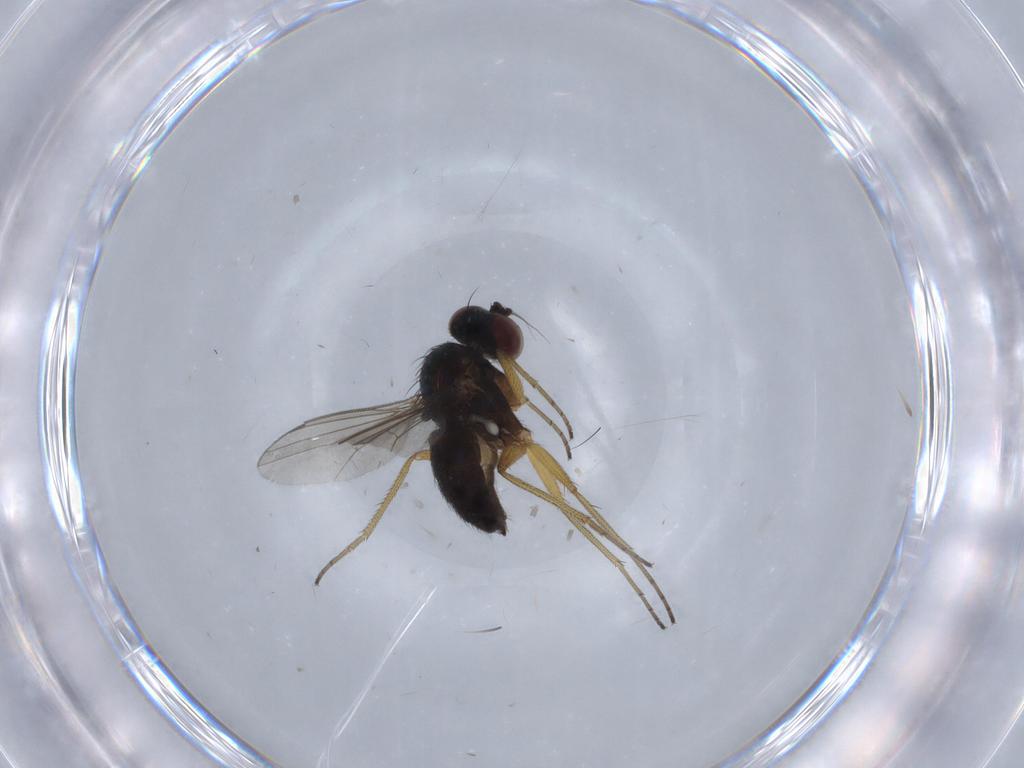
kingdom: Animalia
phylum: Arthropoda
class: Insecta
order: Diptera
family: Dolichopodidae
